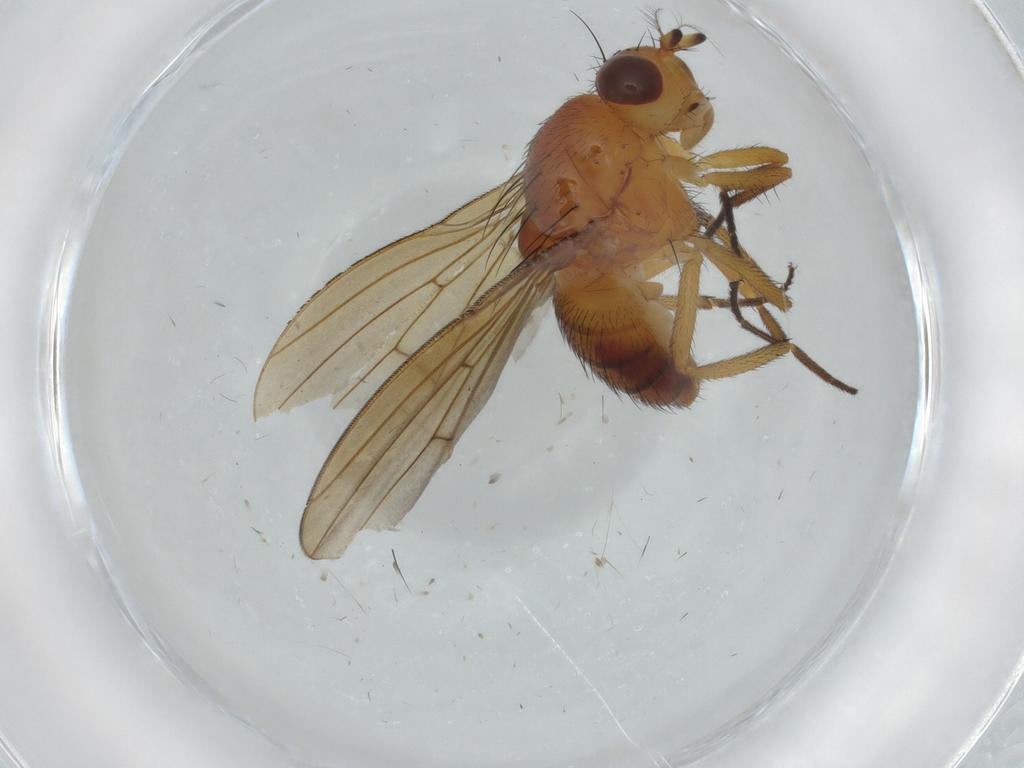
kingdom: Animalia
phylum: Arthropoda
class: Insecta
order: Diptera
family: Lauxaniidae
